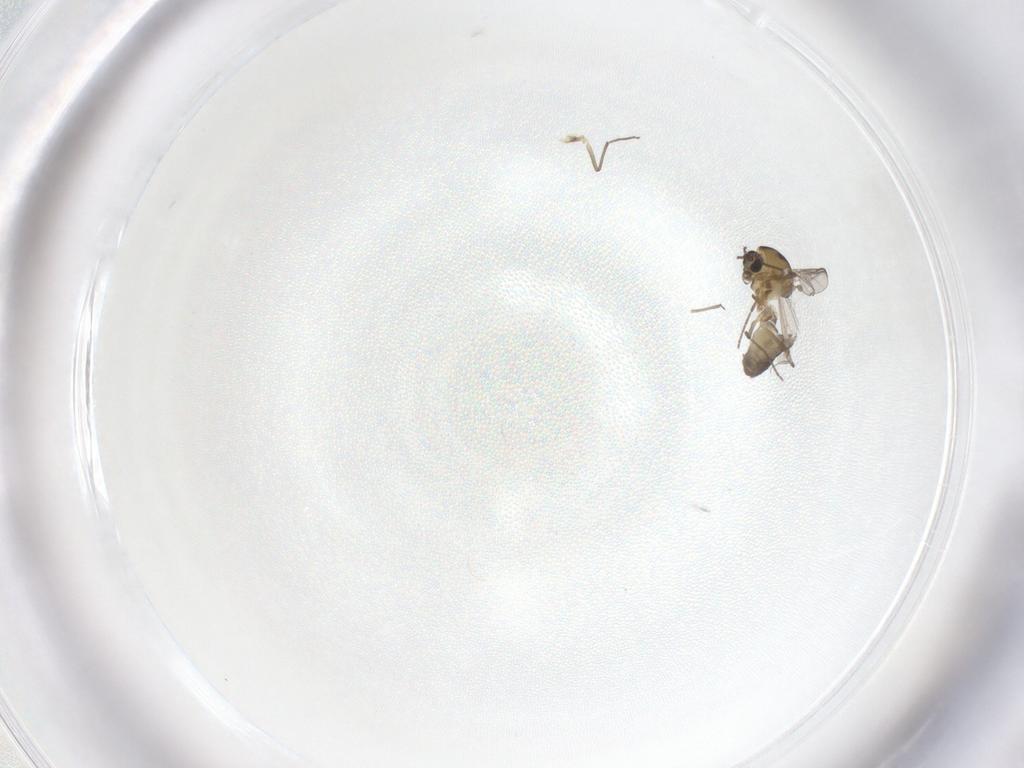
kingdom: Animalia
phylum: Arthropoda
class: Insecta
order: Diptera
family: Chironomidae
